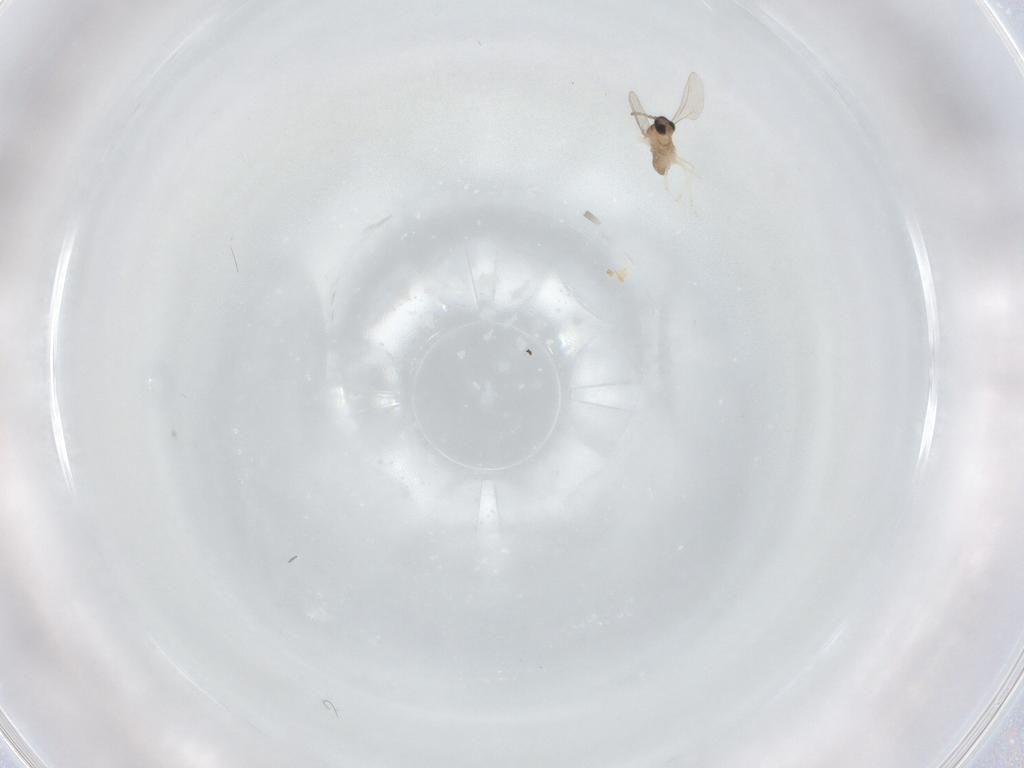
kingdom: Animalia
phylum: Arthropoda
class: Insecta
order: Diptera
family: Cecidomyiidae
